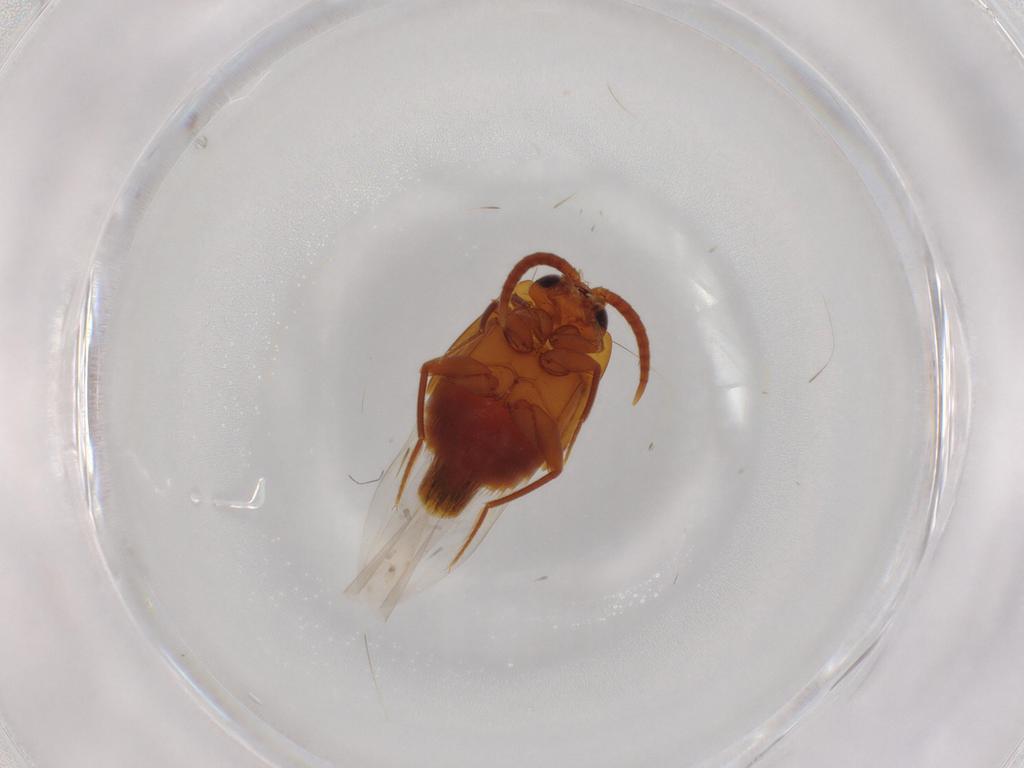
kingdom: Animalia
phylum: Arthropoda
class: Insecta
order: Coleoptera
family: Staphylinidae
